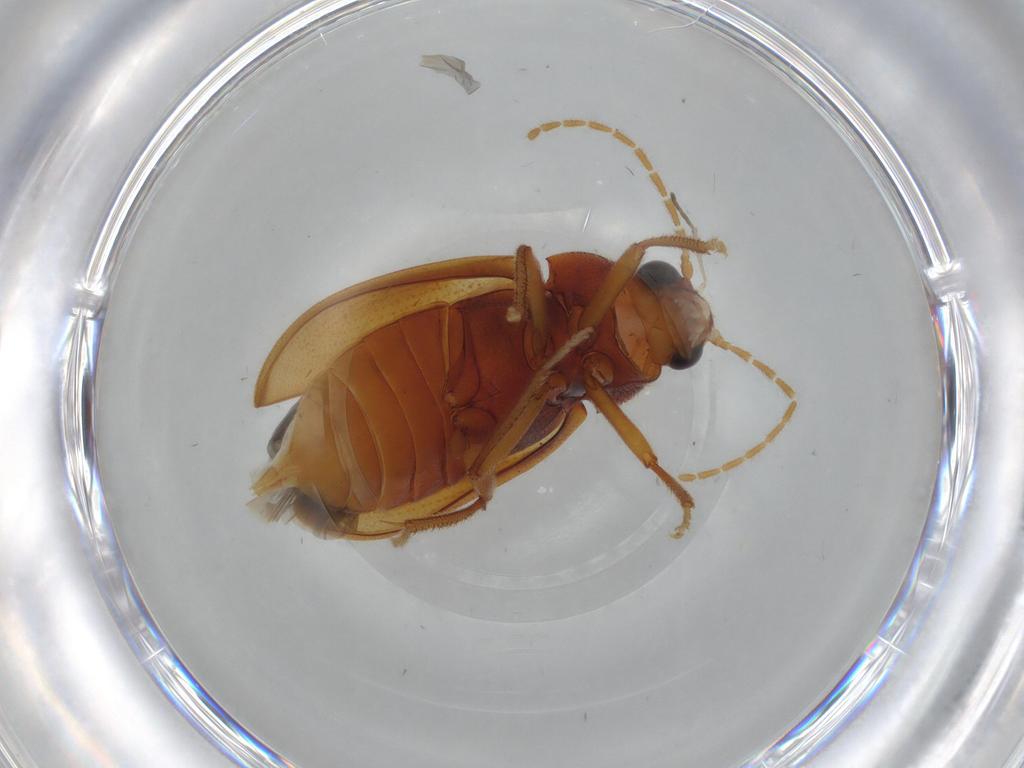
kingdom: Animalia
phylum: Arthropoda
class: Insecta
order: Coleoptera
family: Ptilodactylidae
